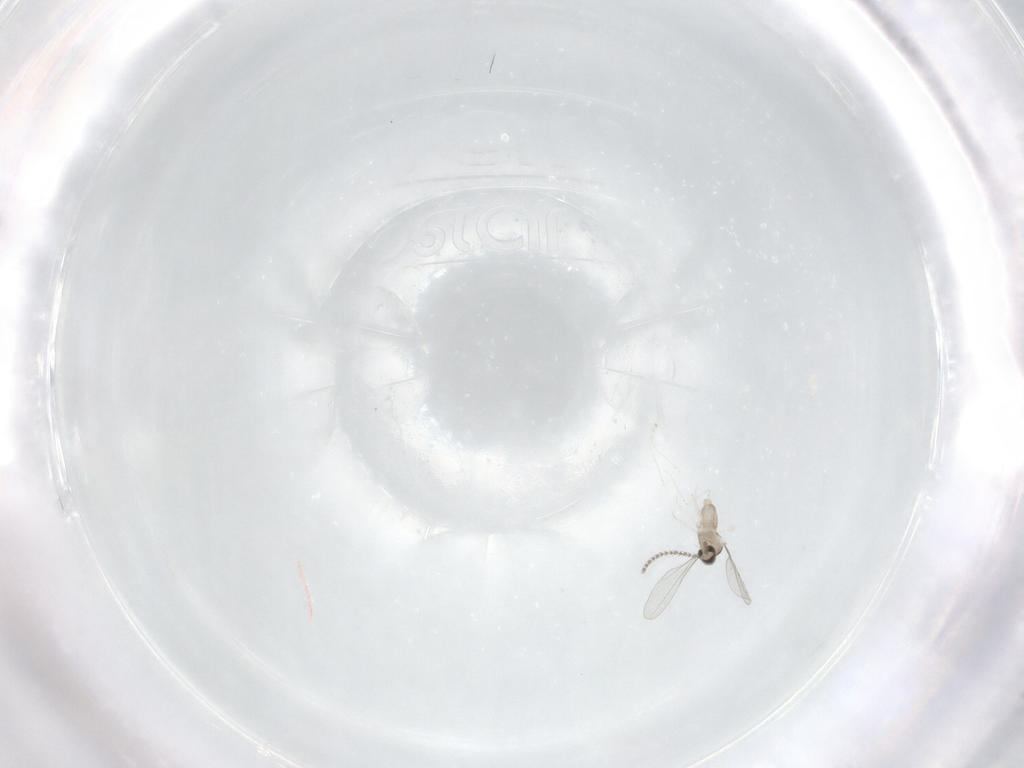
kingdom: Animalia
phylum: Arthropoda
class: Insecta
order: Diptera
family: Cecidomyiidae
